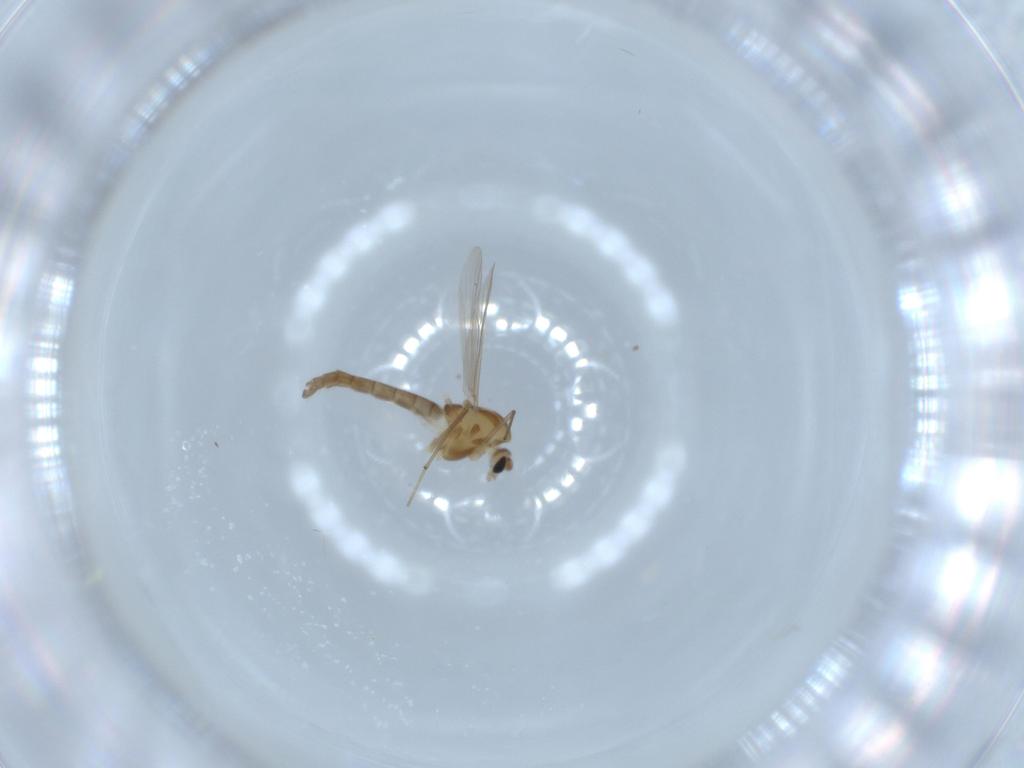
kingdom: Animalia
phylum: Arthropoda
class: Insecta
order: Diptera
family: Chironomidae
